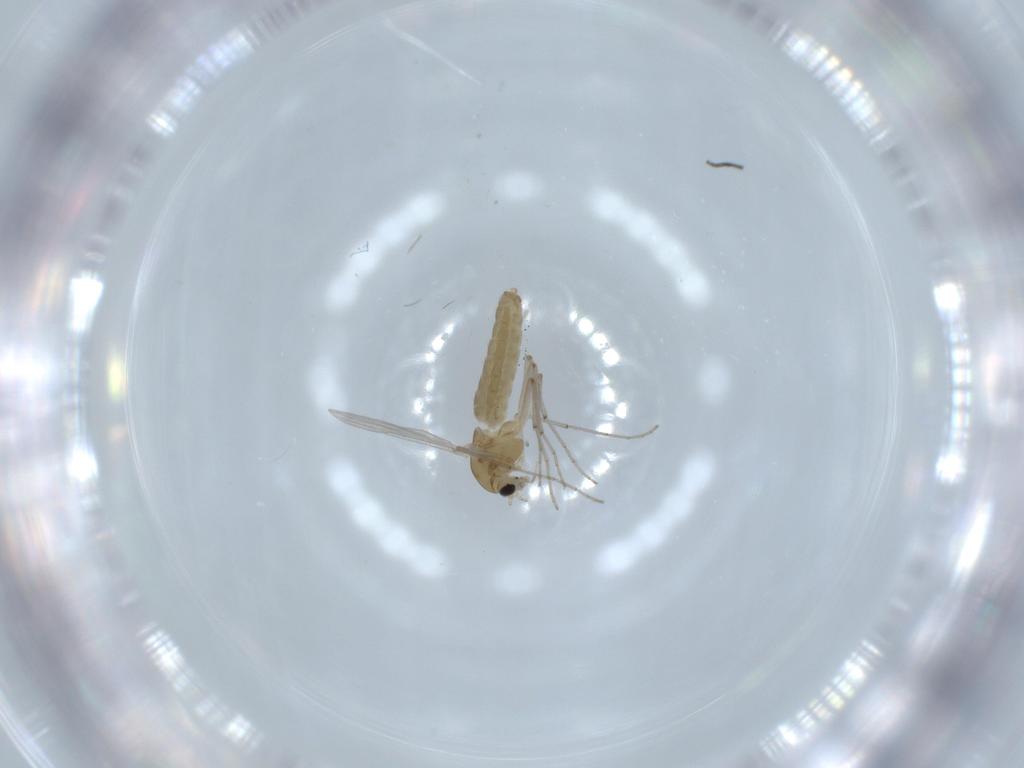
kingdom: Animalia
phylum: Arthropoda
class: Insecta
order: Diptera
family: Chironomidae
